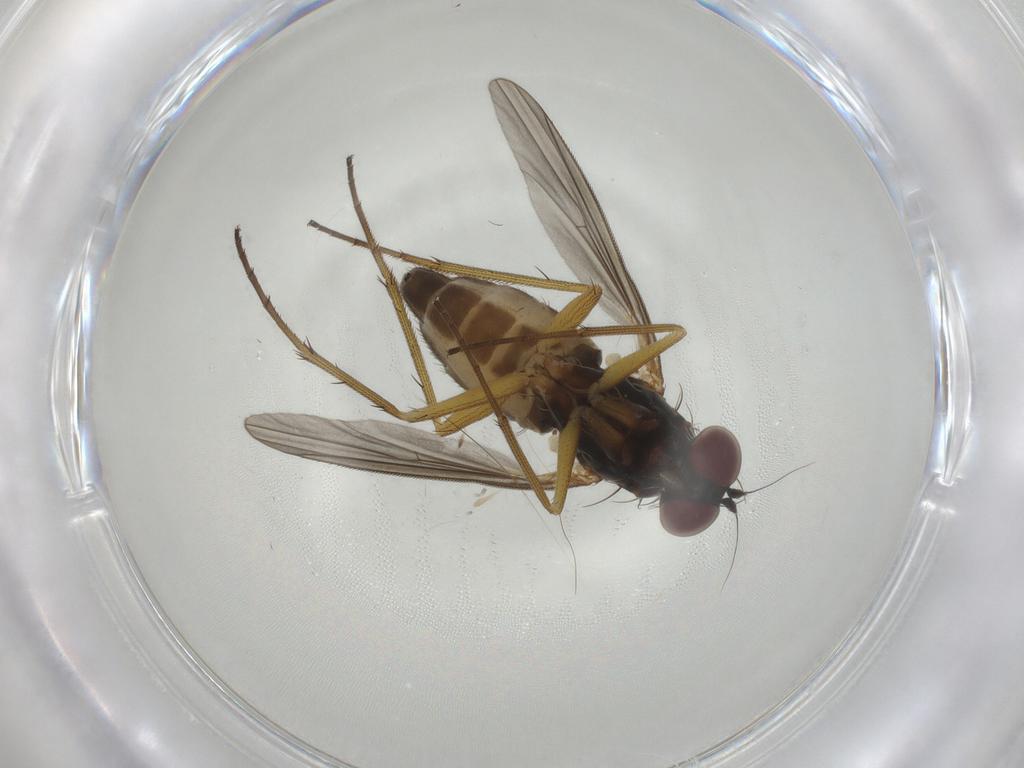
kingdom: Animalia
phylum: Arthropoda
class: Insecta
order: Diptera
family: Dolichopodidae
